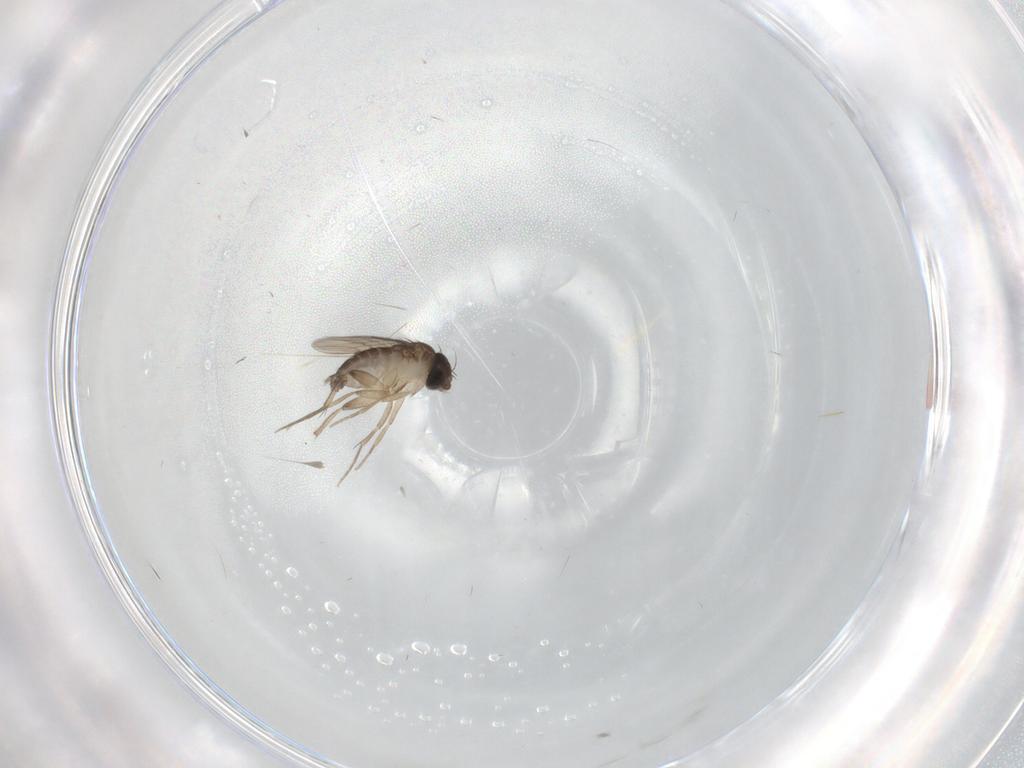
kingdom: Animalia
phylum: Arthropoda
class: Insecta
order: Diptera
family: Phoridae
